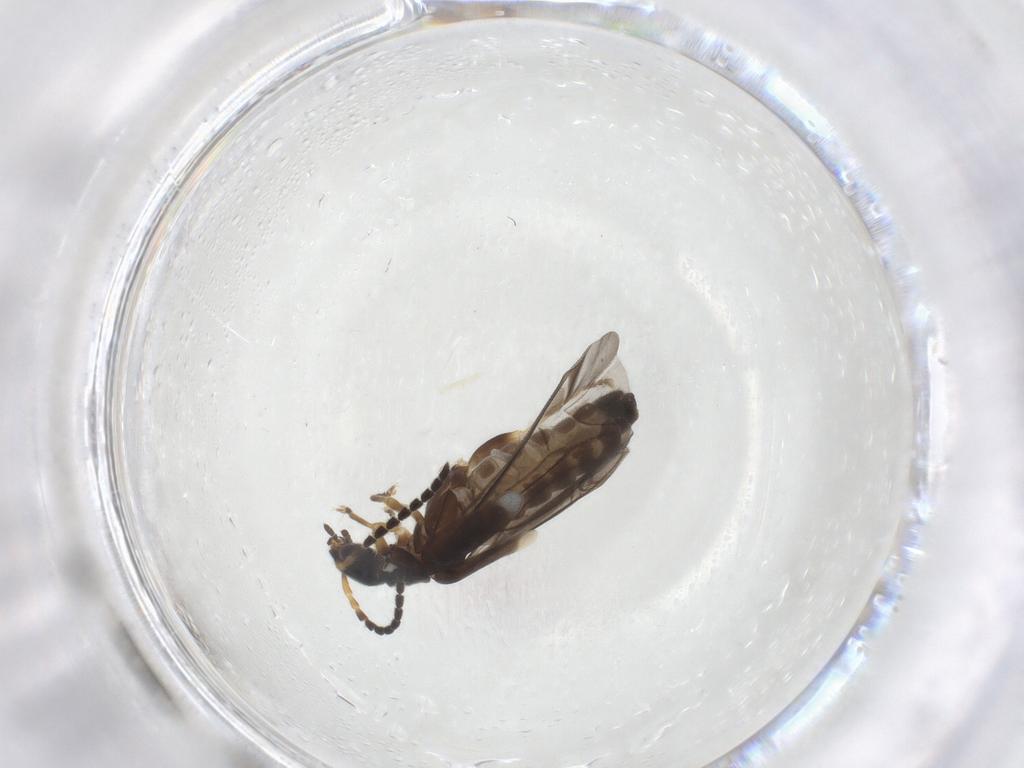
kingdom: Animalia
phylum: Arthropoda
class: Insecta
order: Coleoptera
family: Cantharidae
